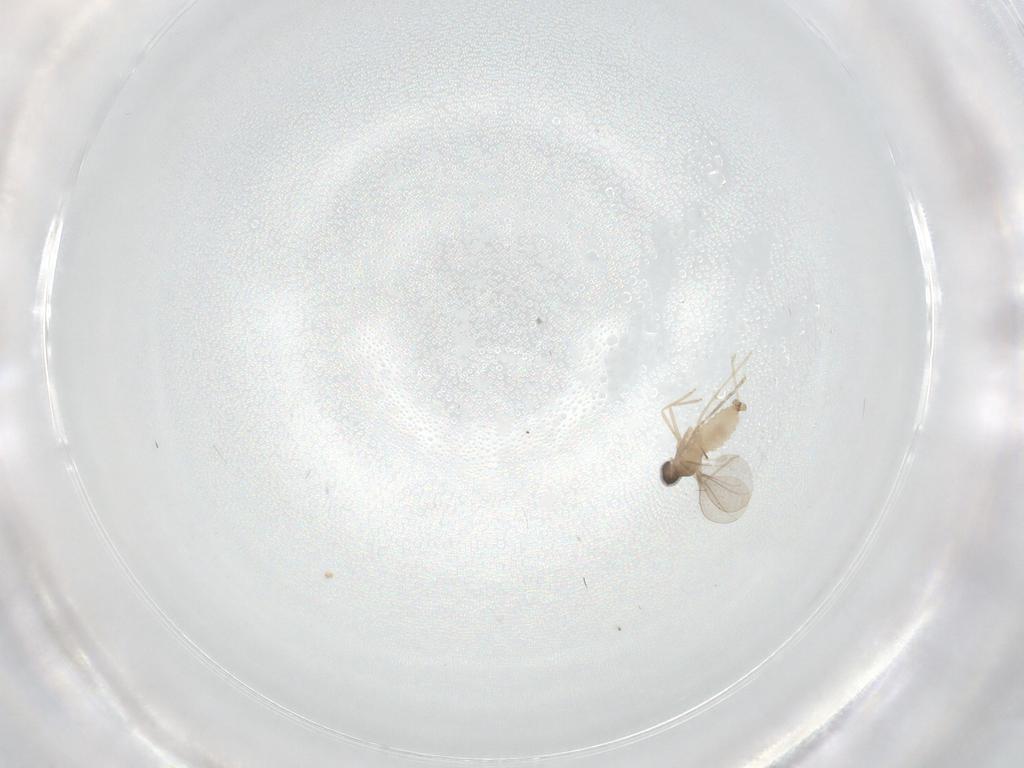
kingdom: Animalia
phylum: Arthropoda
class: Insecta
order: Diptera
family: Cecidomyiidae
